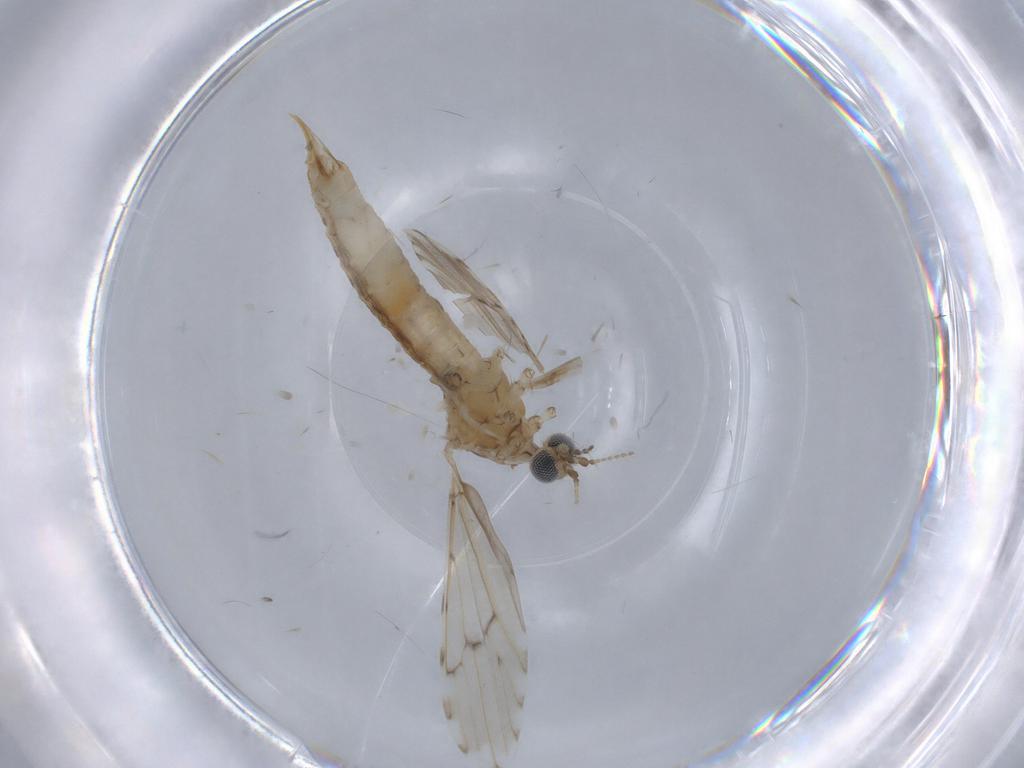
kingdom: Animalia
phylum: Arthropoda
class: Insecta
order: Diptera
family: Limoniidae
